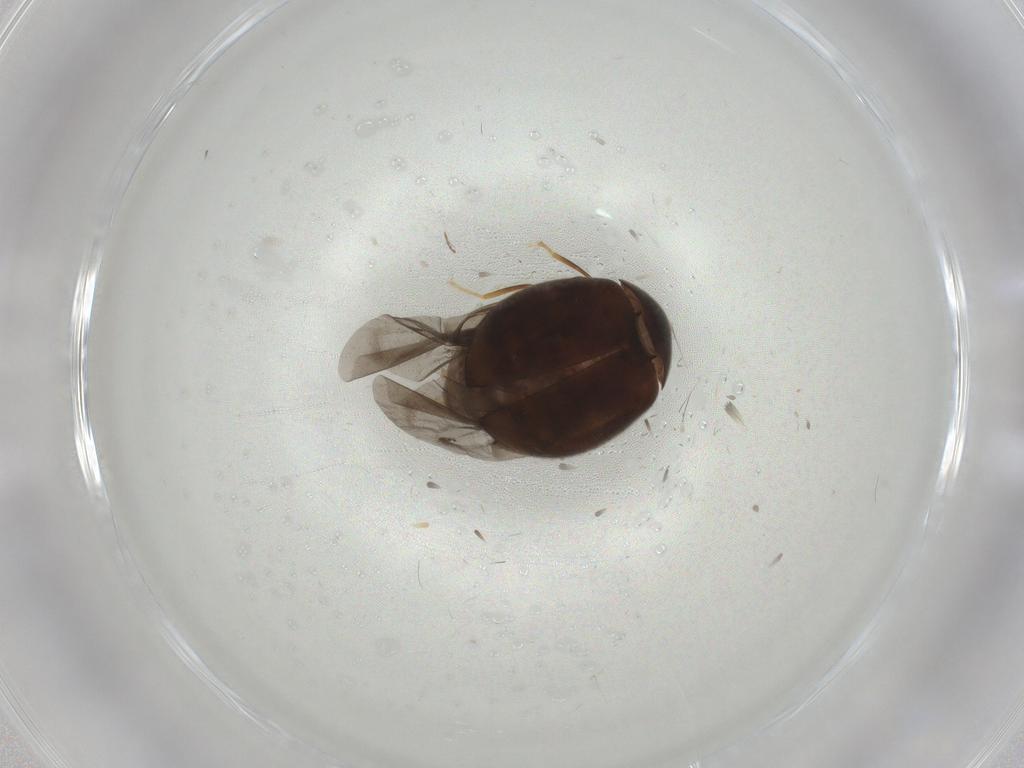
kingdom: Animalia
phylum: Arthropoda
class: Insecta
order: Coleoptera
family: Psephenidae
